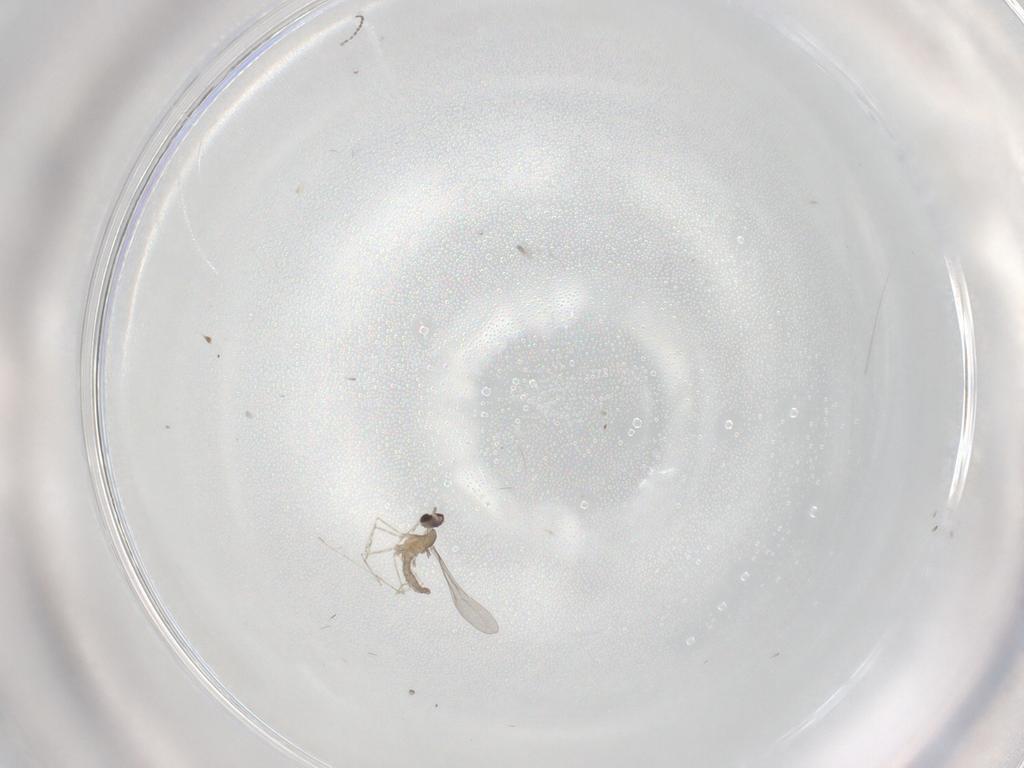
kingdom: Animalia
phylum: Arthropoda
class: Insecta
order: Diptera
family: Cecidomyiidae
